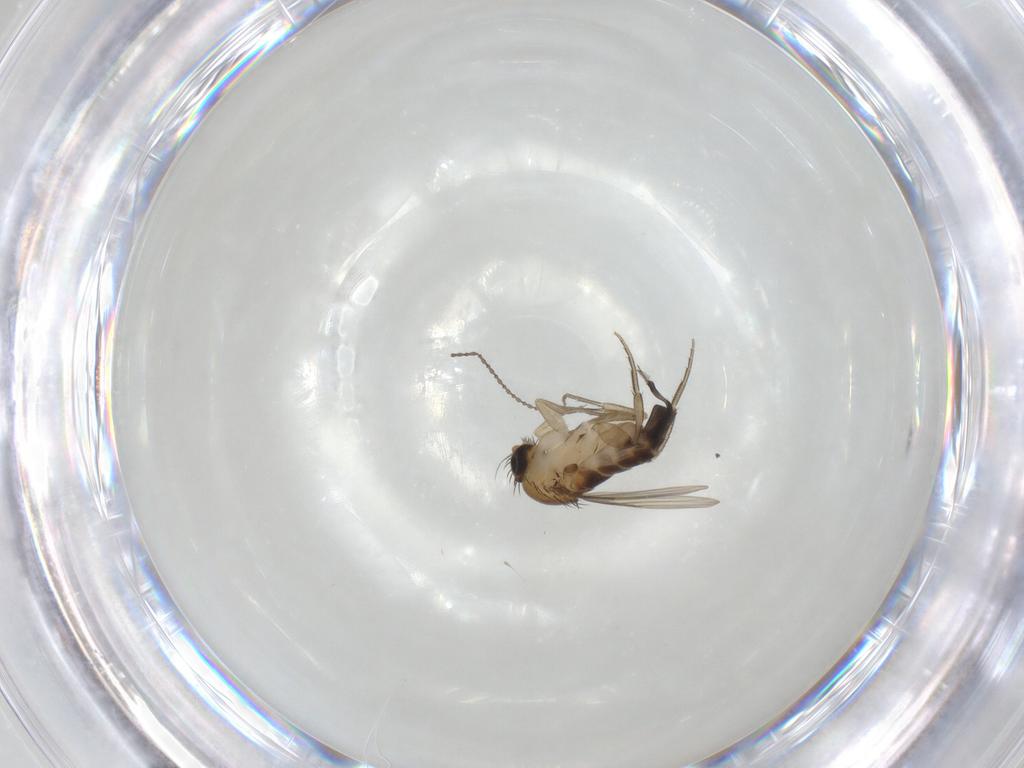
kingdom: Animalia
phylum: Arthropoda
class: Insecta
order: Diptera
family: Phoridae
